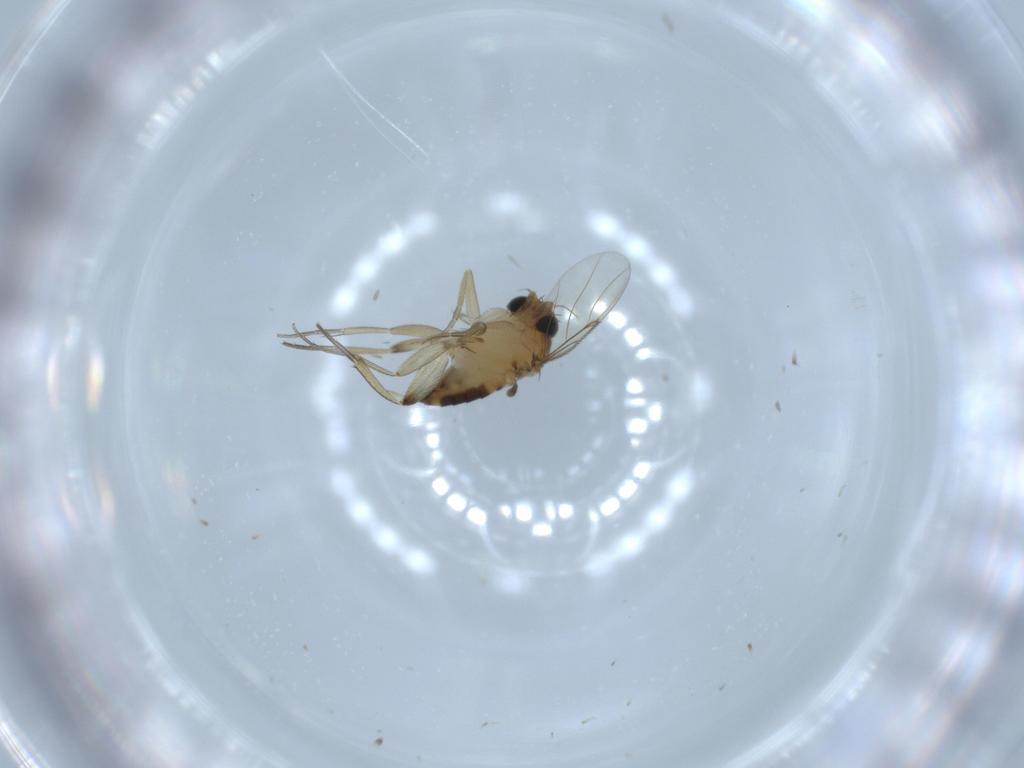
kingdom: Animalia
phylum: Arthropoda
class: Insecta
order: Diptera
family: Phoridae
